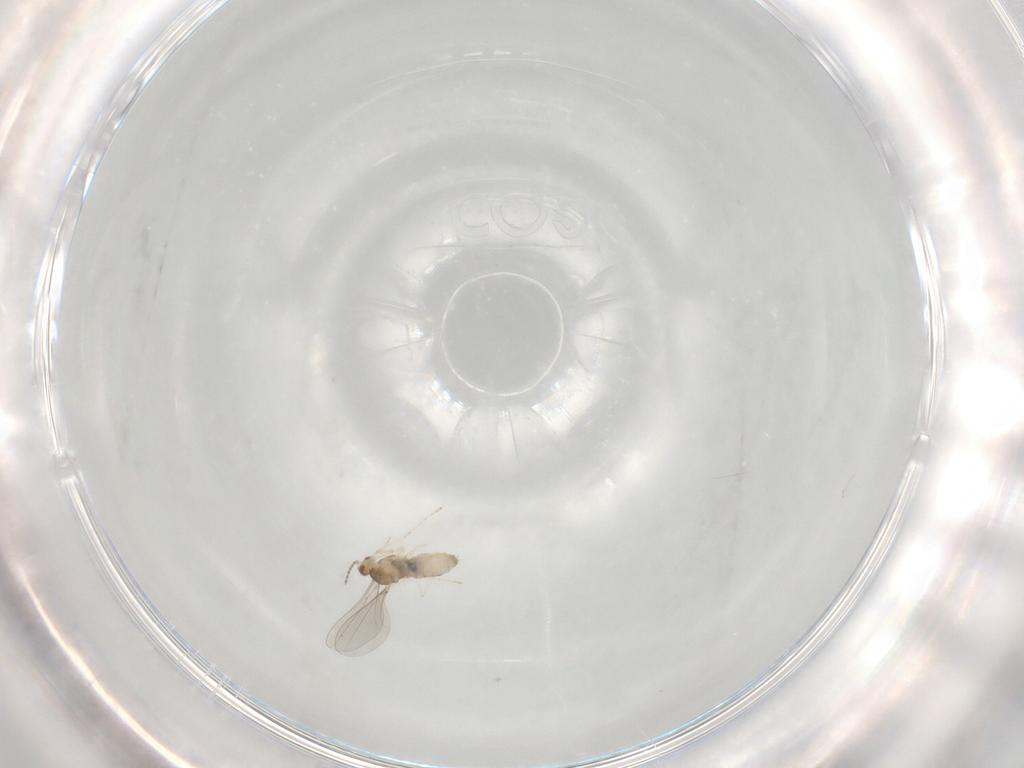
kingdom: Animalia
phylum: Arthropoda
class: Insecta
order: Diptera
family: Cecidomyiidae
